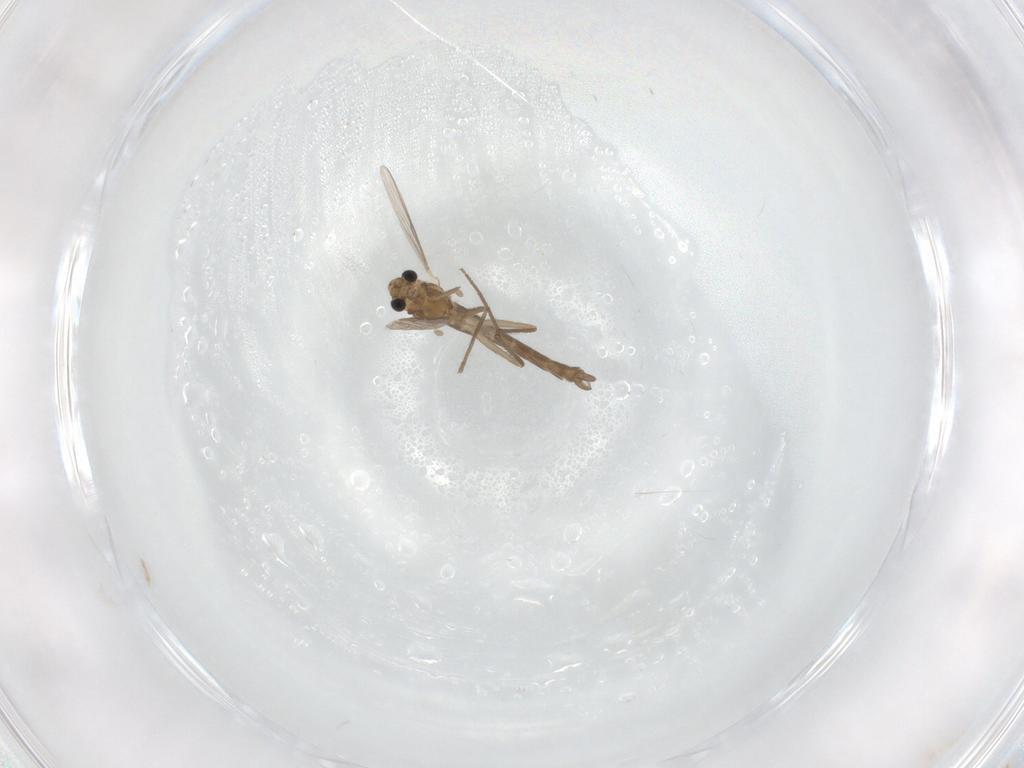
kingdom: Animalia
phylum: Arthropoda
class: Insecta
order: Diptera
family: Chironomidae
